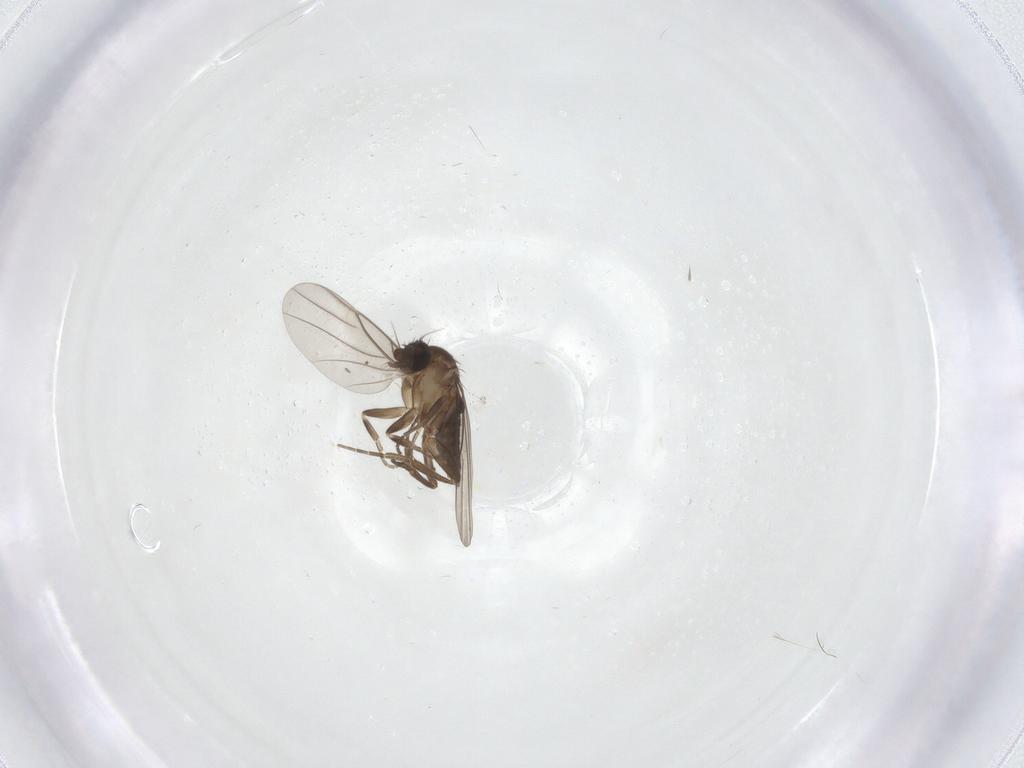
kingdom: Animalia
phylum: Arthropoda
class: Insecta
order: Diptera
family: Phoridae
